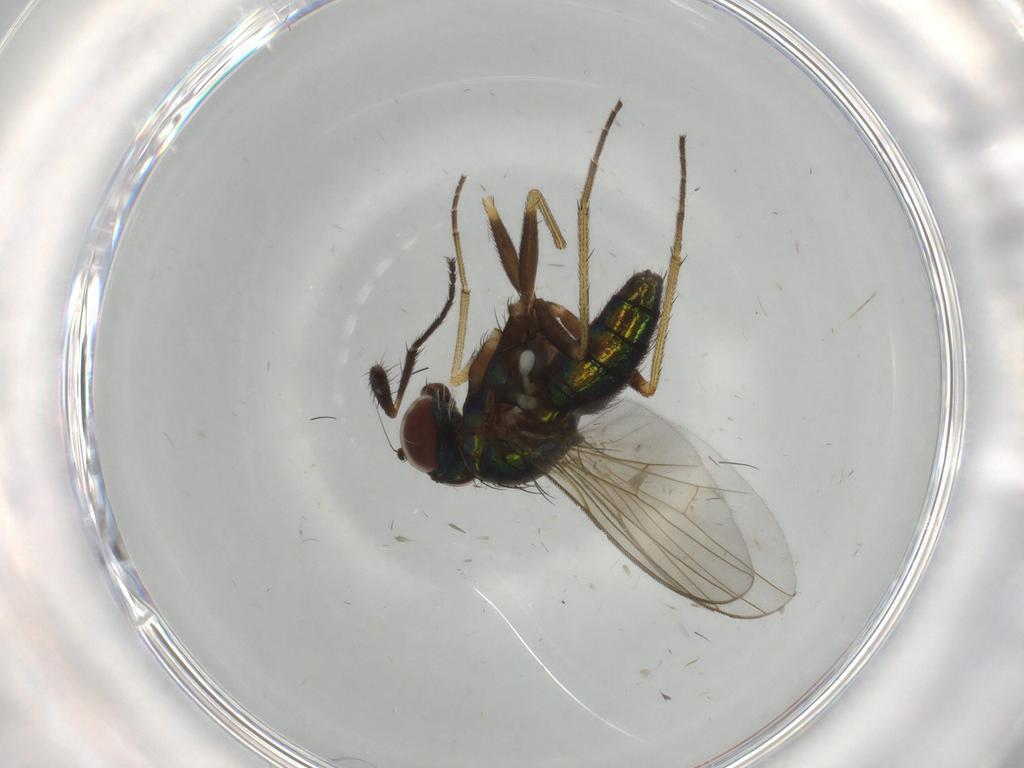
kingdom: Animalia
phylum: Arthropoda
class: Insecta
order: Diptera
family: Dolichopodidae
